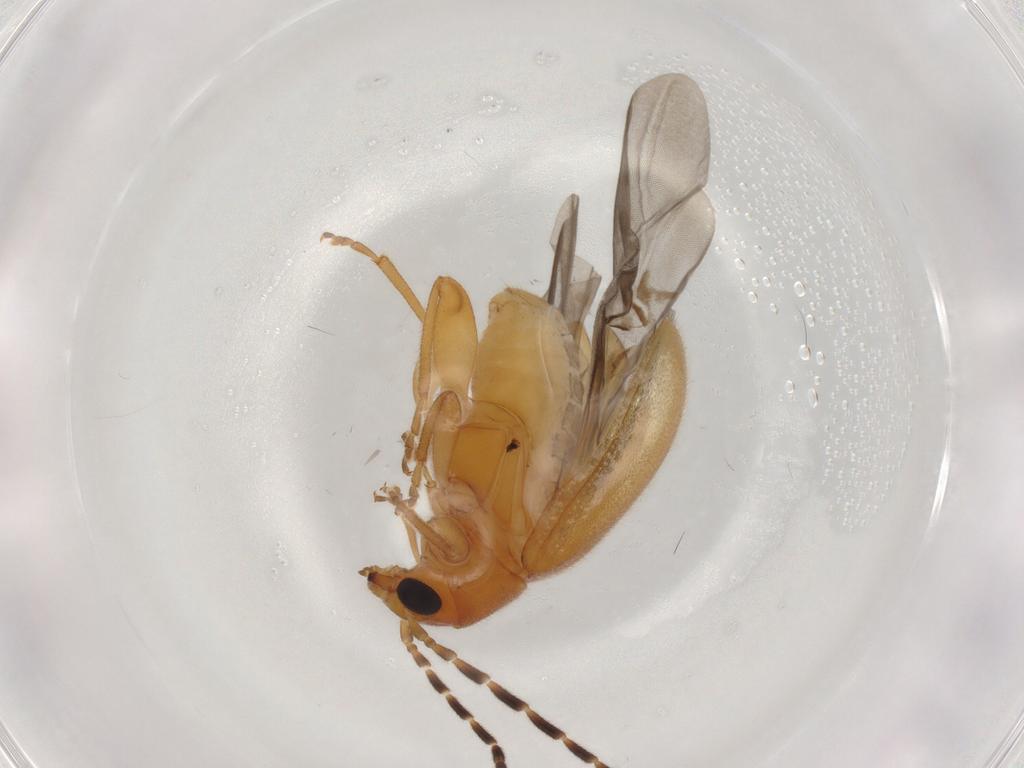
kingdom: Animalia
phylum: Arthropoda
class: Insecta
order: Coleoptera
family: Chrysomelidae
